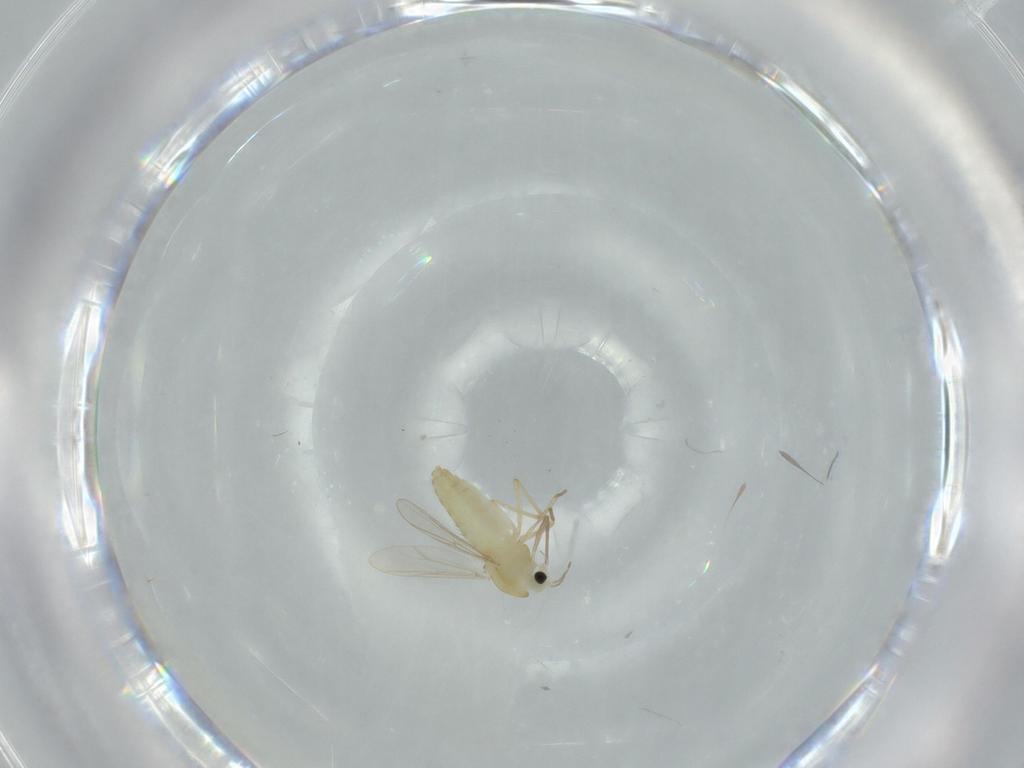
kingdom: Animalia
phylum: Arthropoda
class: Insecta
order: Diptera
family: Chironomidae
